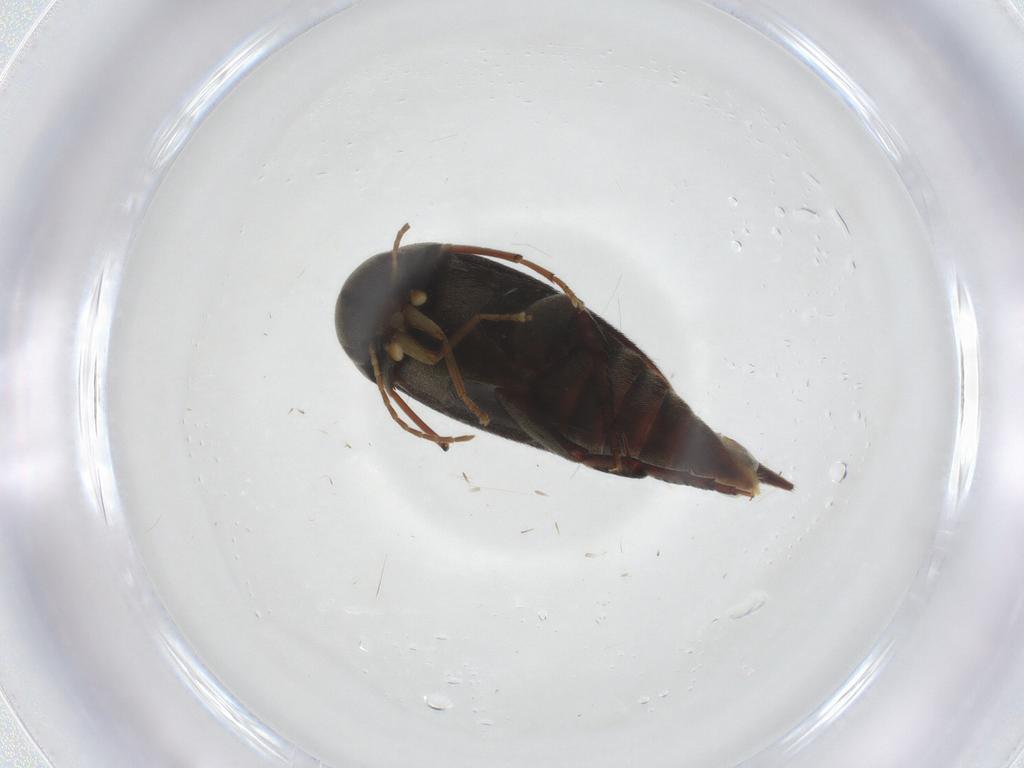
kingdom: Animalia
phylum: Arthropoda
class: Insecta
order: Coleoptera
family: Mordellidae
